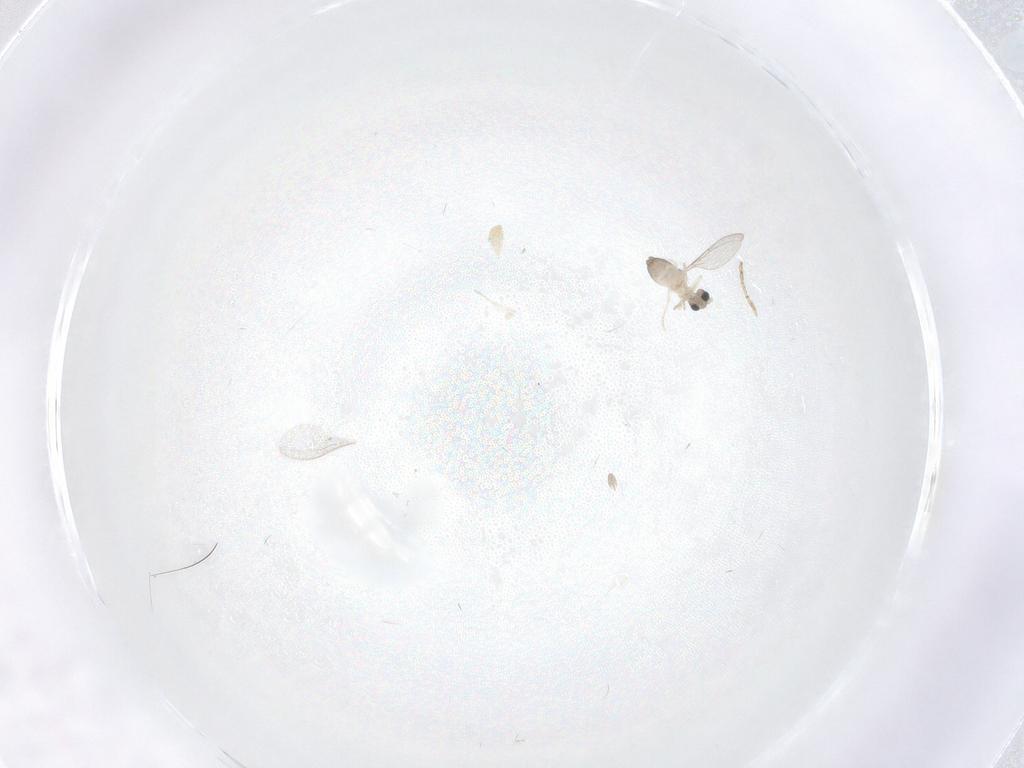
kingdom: Animalia
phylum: Arthropoda
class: Insecta
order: Diptera
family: Cecidomyiidae
